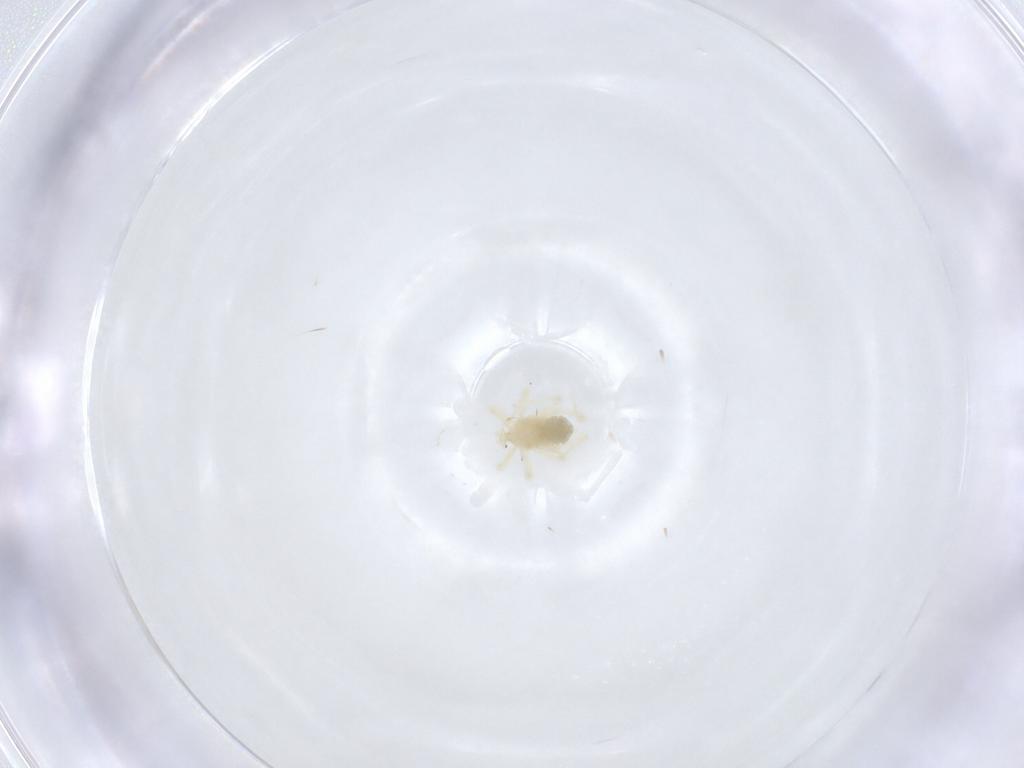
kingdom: Animalia
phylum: Arthropoda
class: Arachnida
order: Trombidiformes
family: Anystidae
